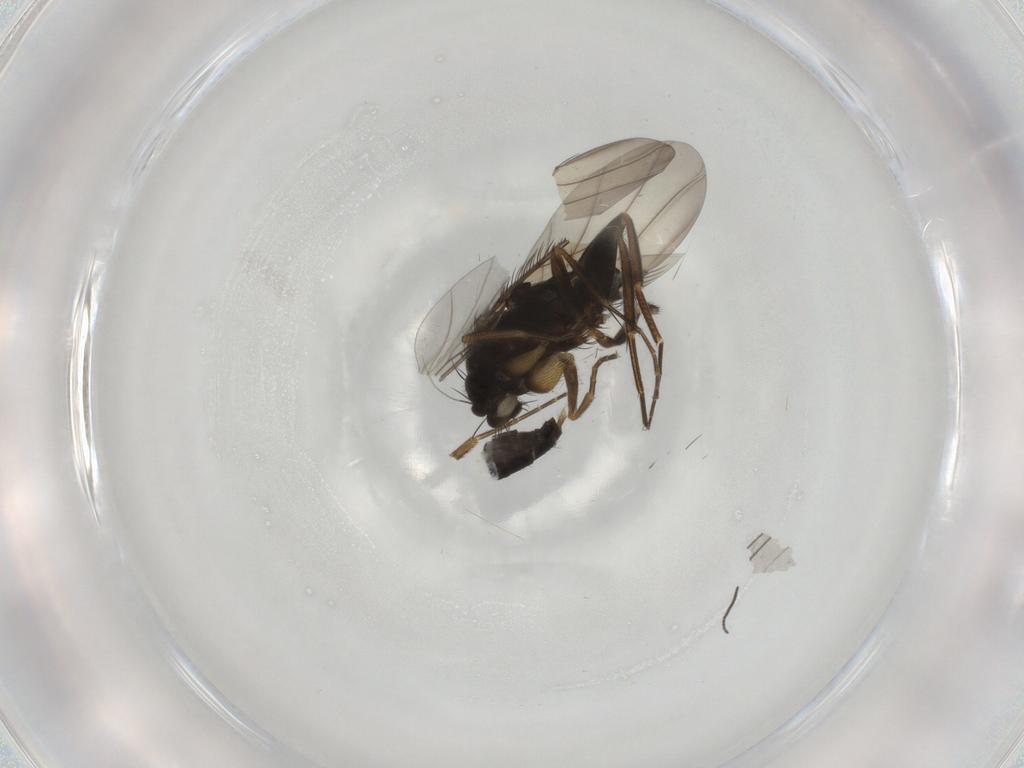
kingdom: Animalia
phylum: Arthropoda
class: Insecta
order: Diptera
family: Phoridae
